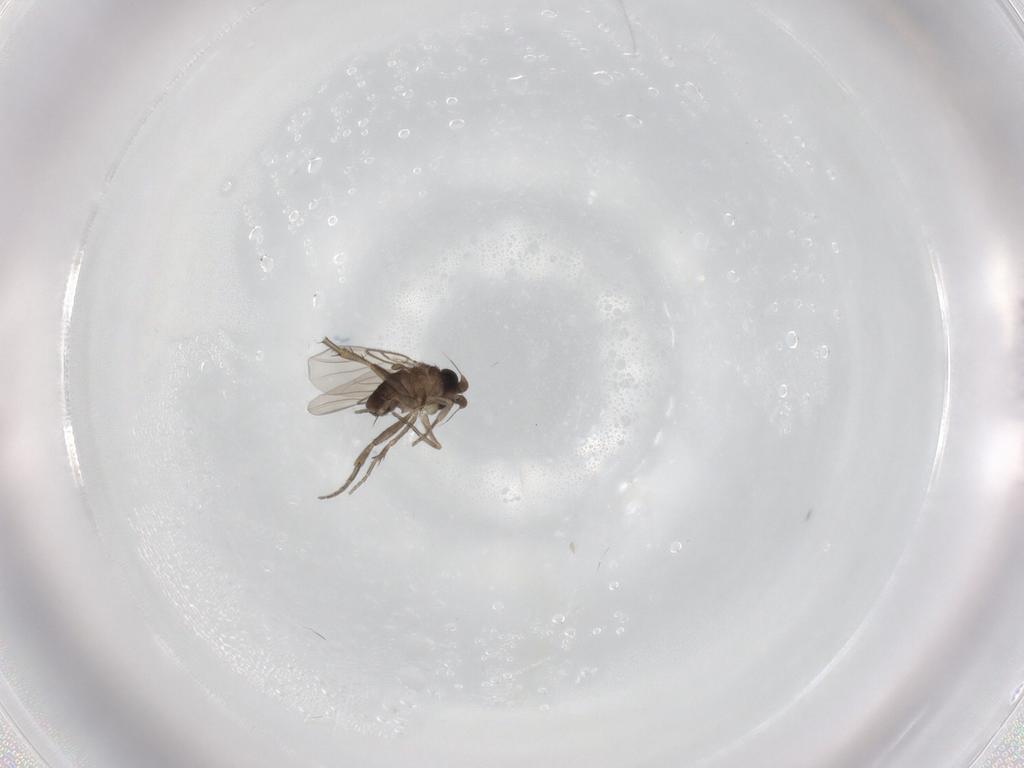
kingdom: Animalia
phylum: Arthropoda
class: Insecta
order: Diptera
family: Phoridae
